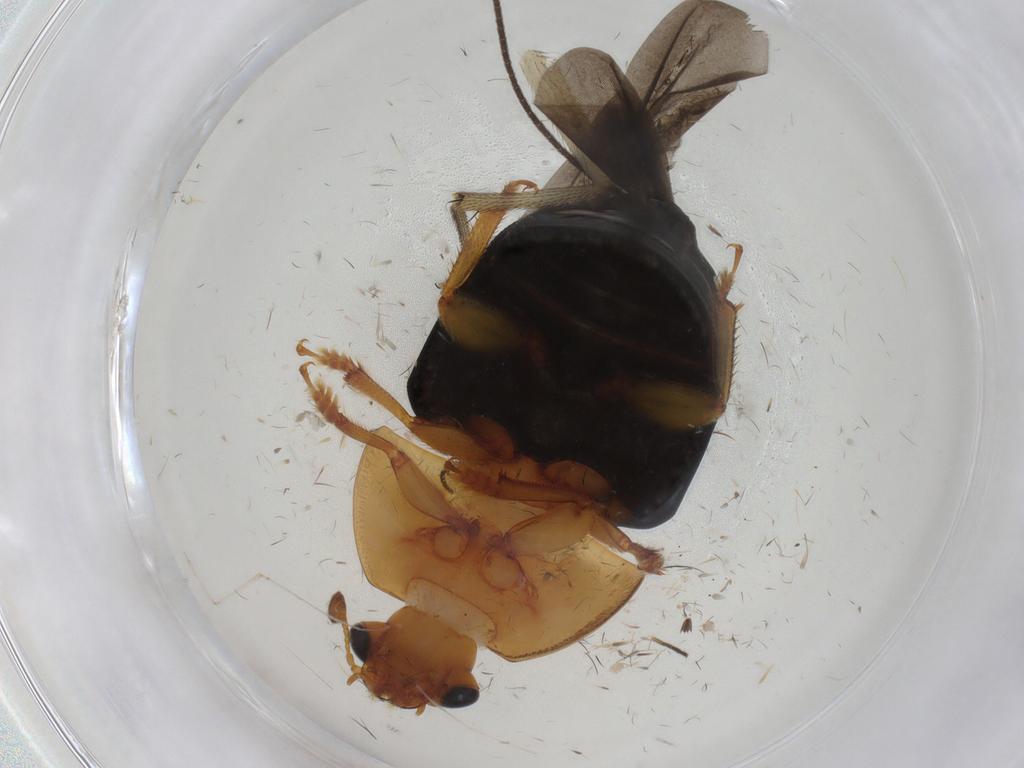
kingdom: Animalia
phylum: Arthropoda
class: Insecta
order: Coleoptera
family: Nitidulidae
